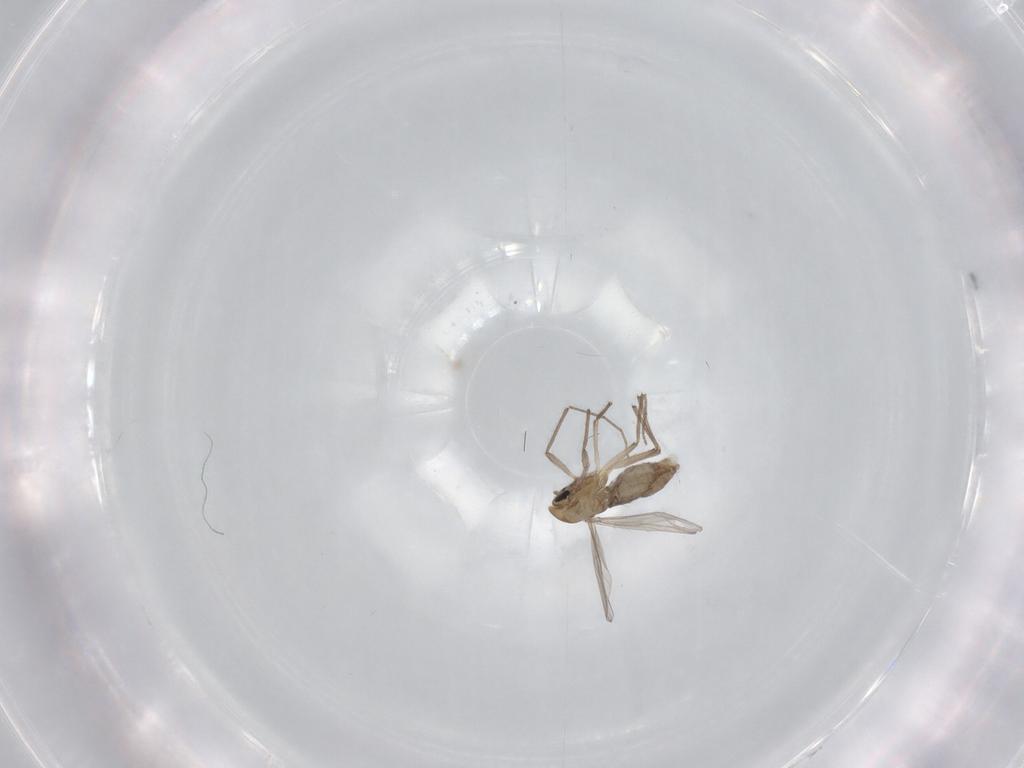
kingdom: Animalia
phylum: Arthropoda
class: Insecta
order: Diptera
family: Chironomidae
